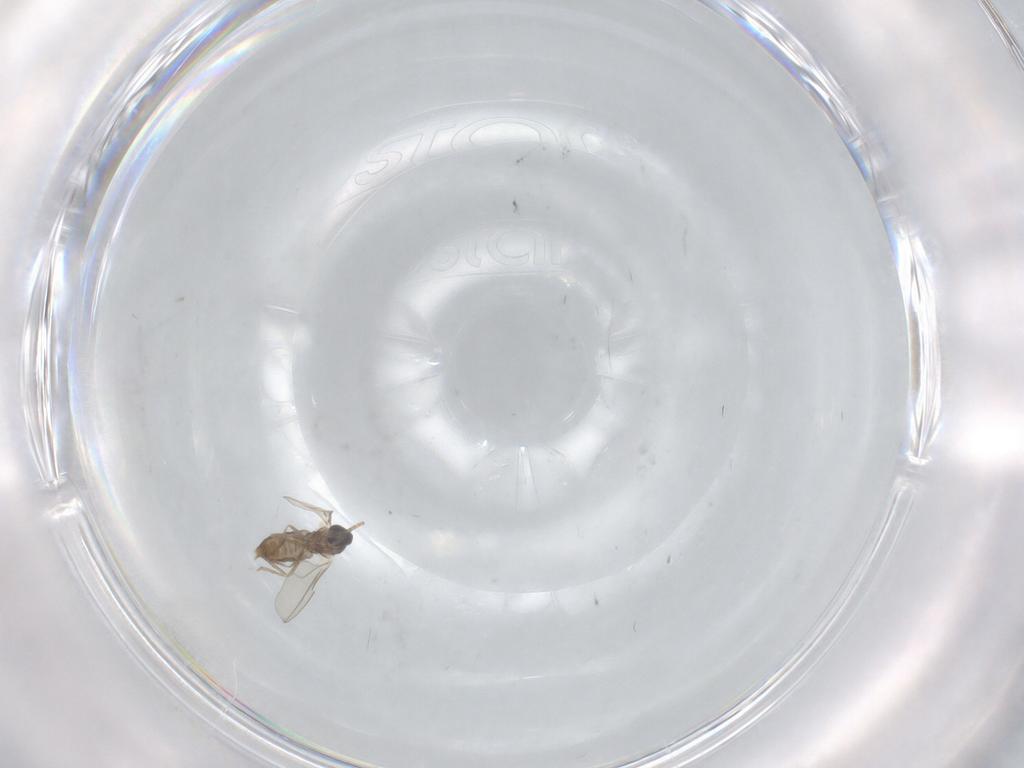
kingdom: Animalia
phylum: Arthropoda
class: Insecta
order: Diptera
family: Cecidomyiidae
